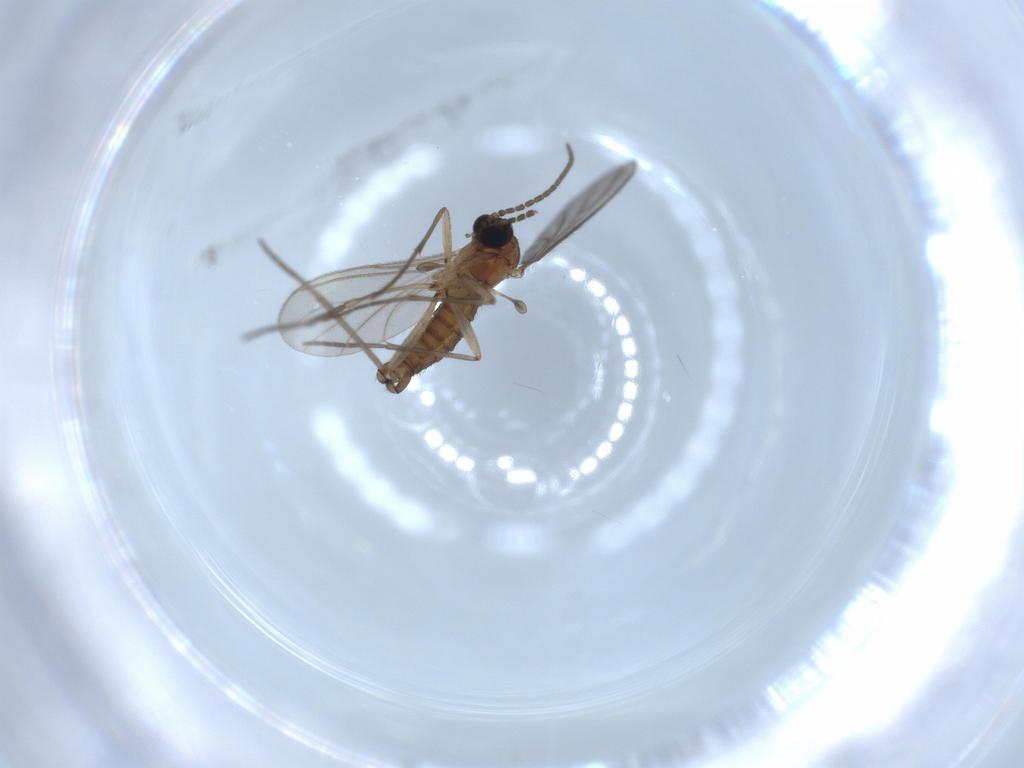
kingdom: Animalia
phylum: Arthropoda
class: Insecta
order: Diptera
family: Sciaridae
